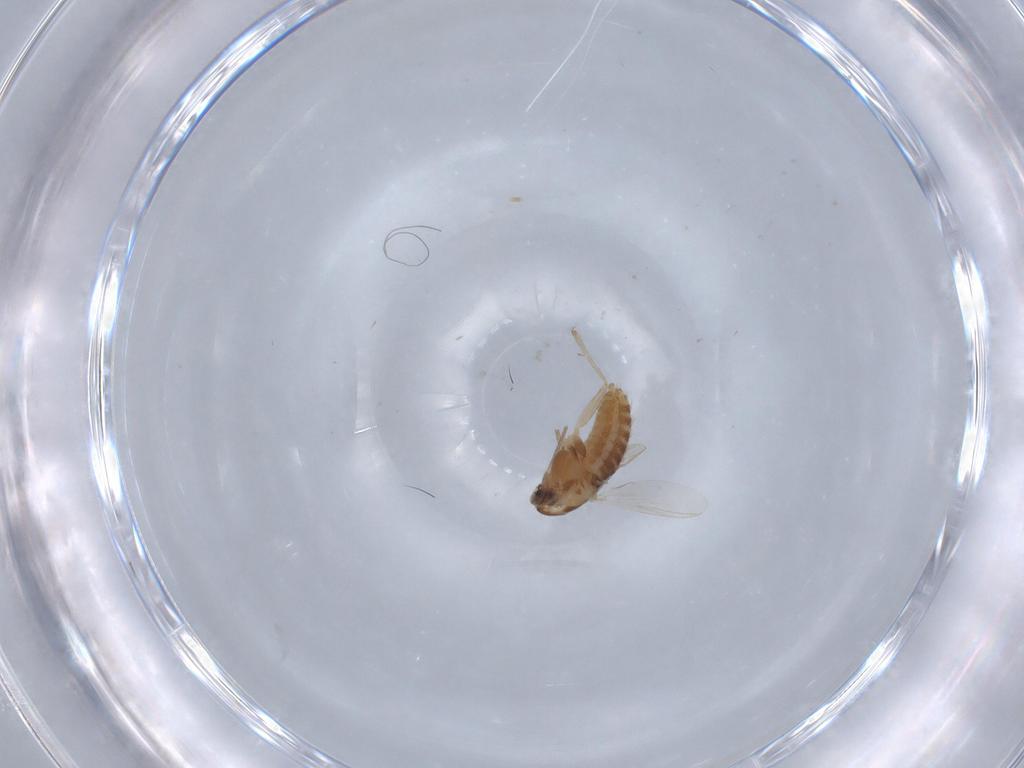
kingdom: Animalia
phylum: Arthropoda
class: Insecta
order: Diptera
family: Chironomidae
